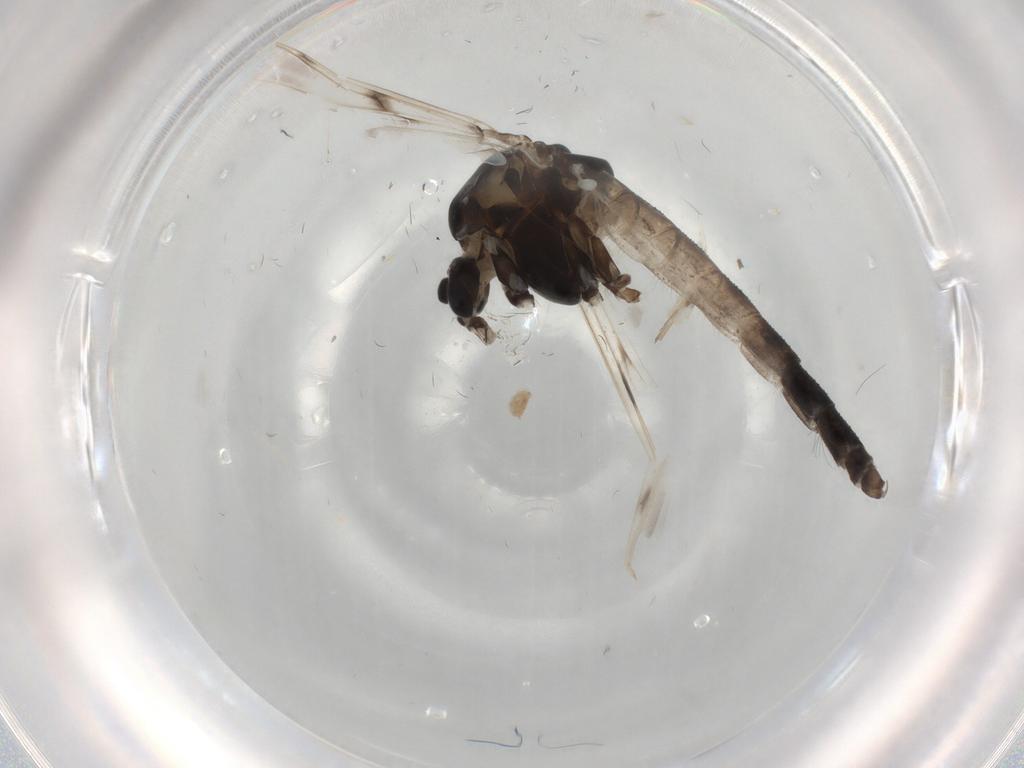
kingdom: Animalia
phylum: Arthropoda
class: Insecta
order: Diptera
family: Chironomidae
